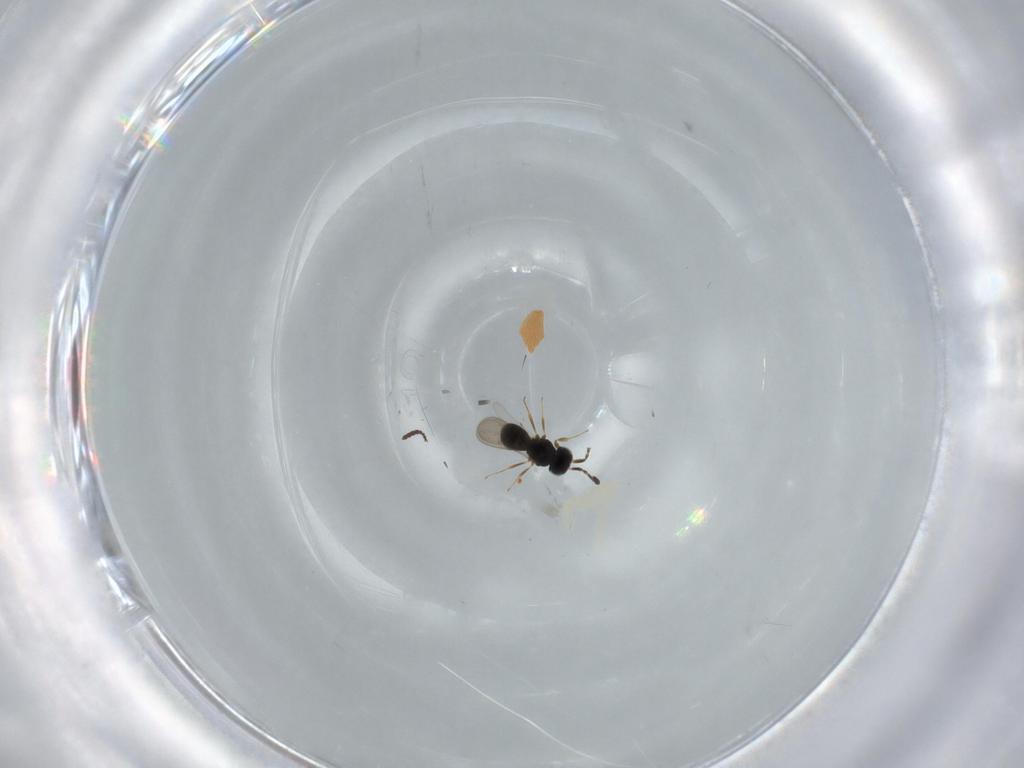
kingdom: Animalia
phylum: Arthropoda
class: Insecta
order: Hymenoptera
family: Scelionidae
